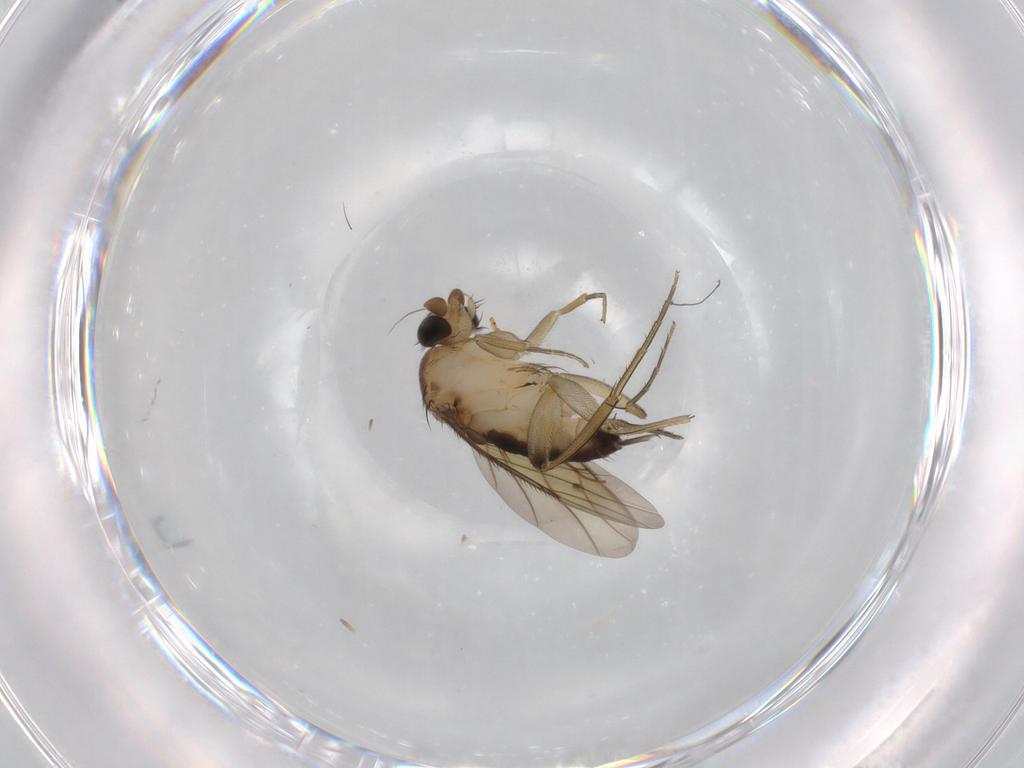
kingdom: Animalia
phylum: Arthropoda
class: Insecta
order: Diptera
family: Phoridae
